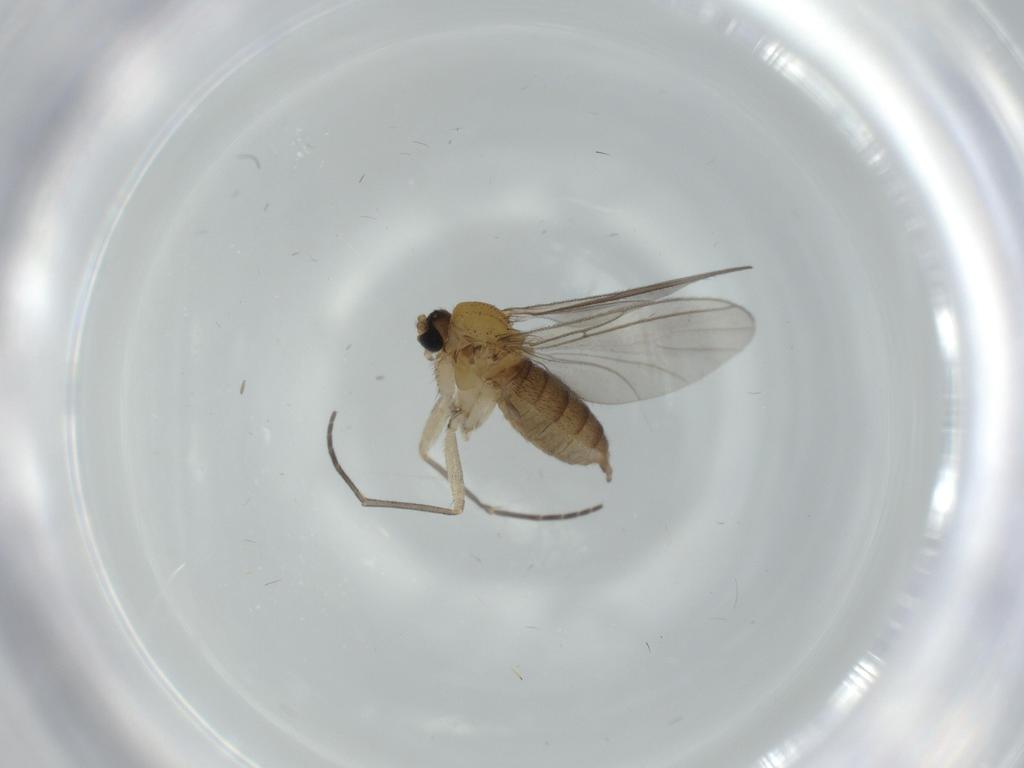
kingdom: Animalia
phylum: Arthropoda
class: Insecta
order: Diptera
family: Sciaridae
